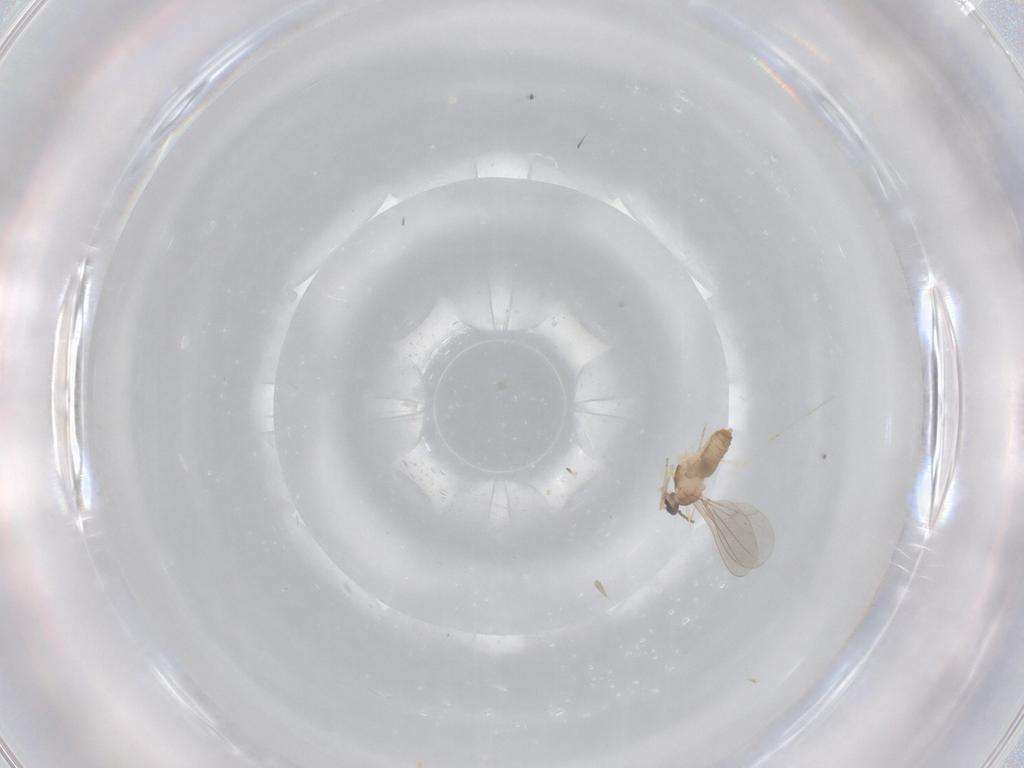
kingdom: Animalia
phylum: Arthropoda
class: Insecta
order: Diptera
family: Cecidomyiidae
